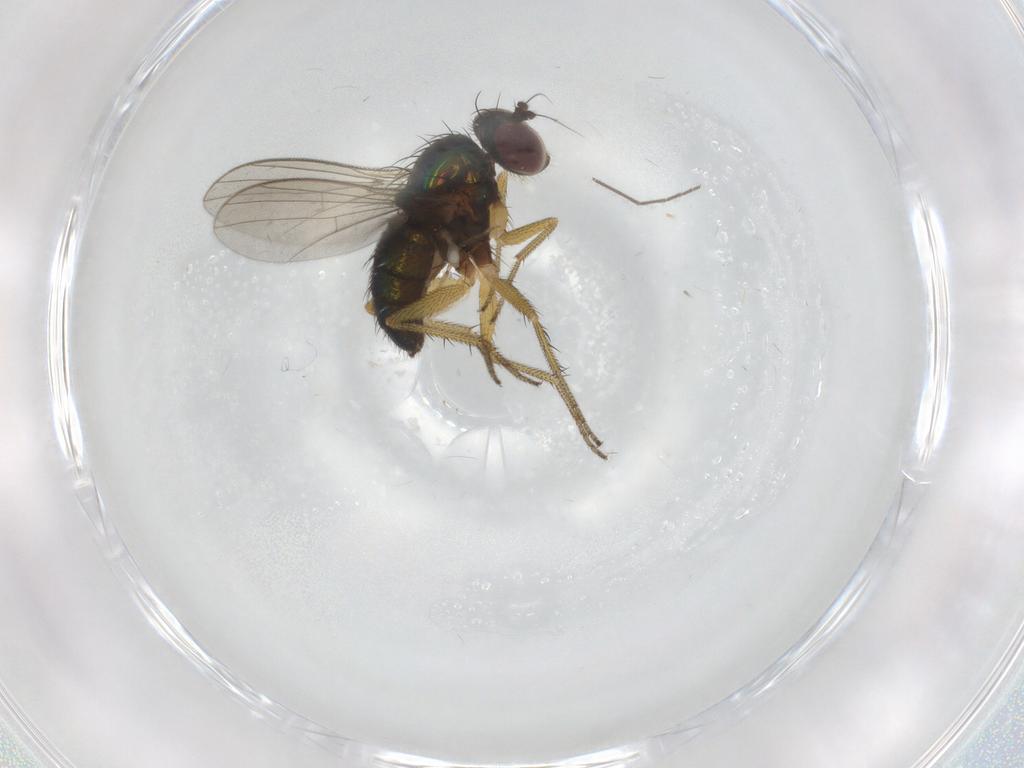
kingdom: Animalia
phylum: Arthropoda
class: Insecta
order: Diptera
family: Chironomidae
